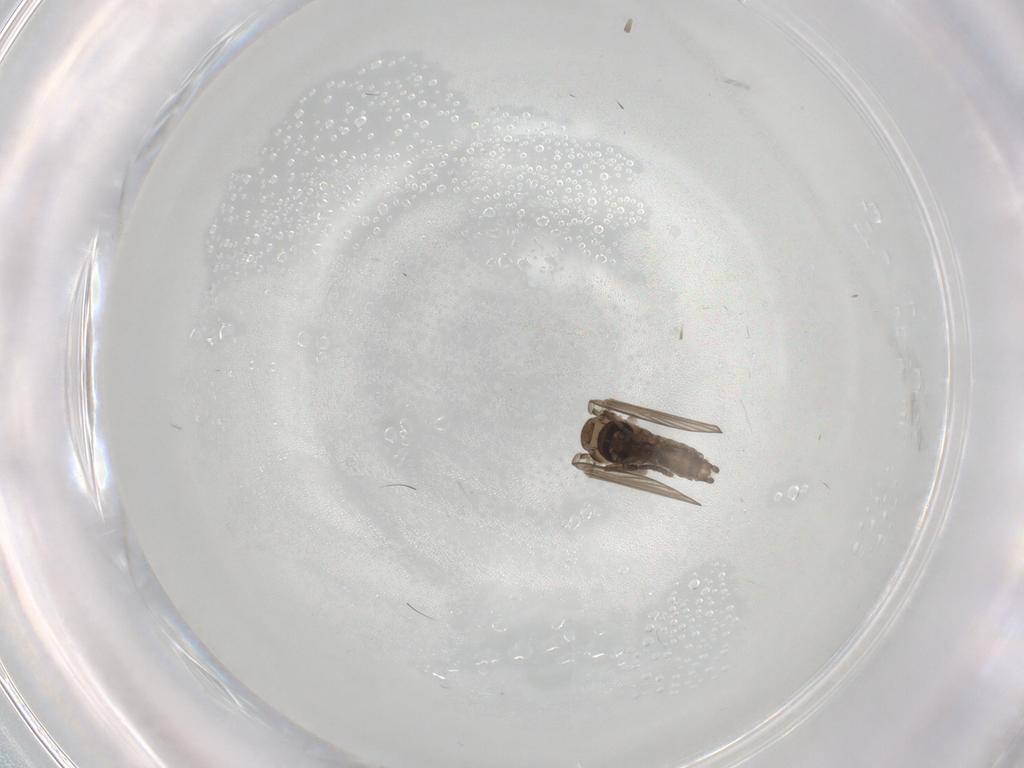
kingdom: Animalia
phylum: Arthropoda
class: Insecta
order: Diptera
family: Psychodidae
